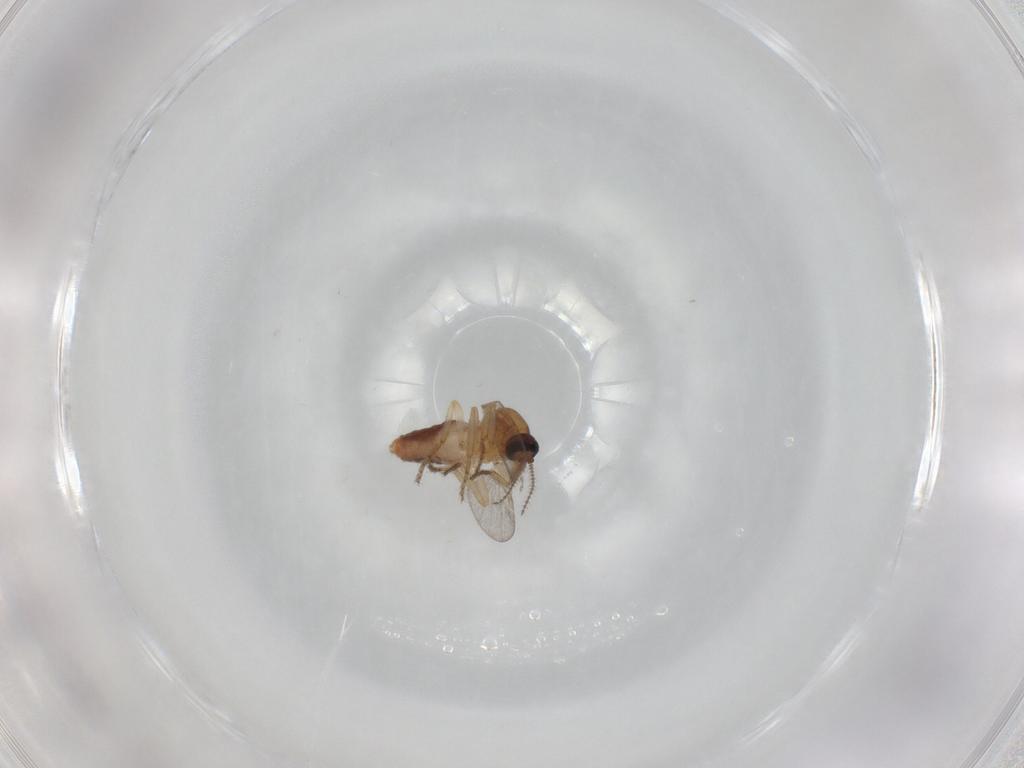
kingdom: Animalia
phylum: Arthropoda
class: Insecta
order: Diptera
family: Ceratopogonidae
